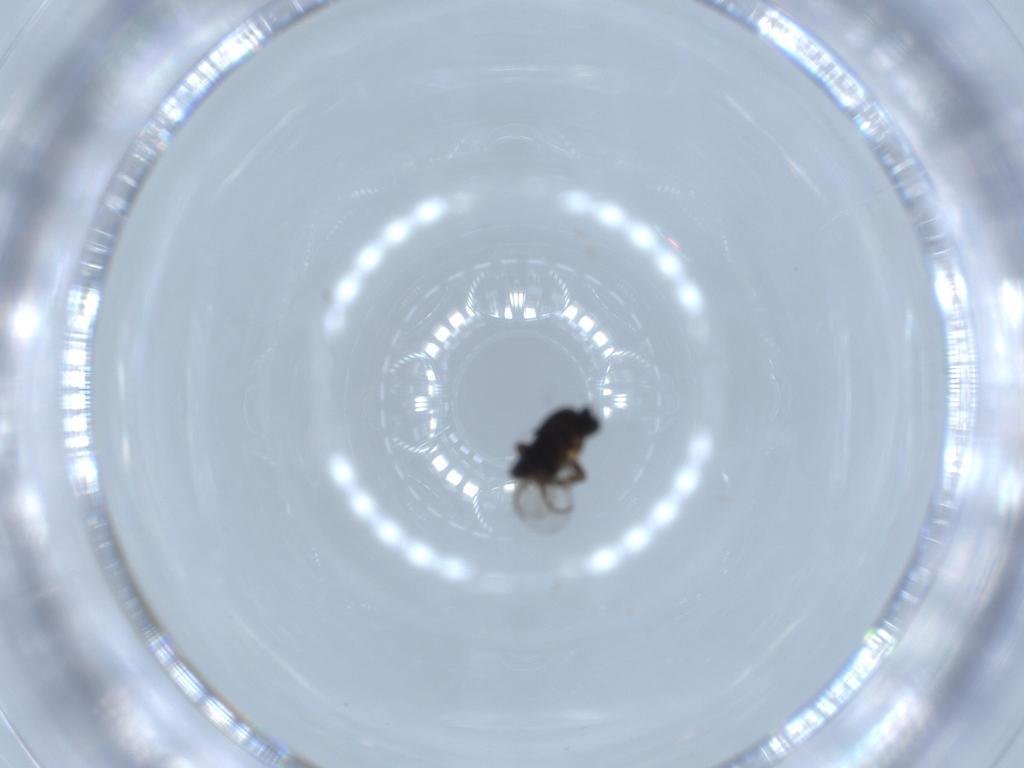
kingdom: Animalia
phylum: Arthropoda
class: Insecta
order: Diptera
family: Phoridae
